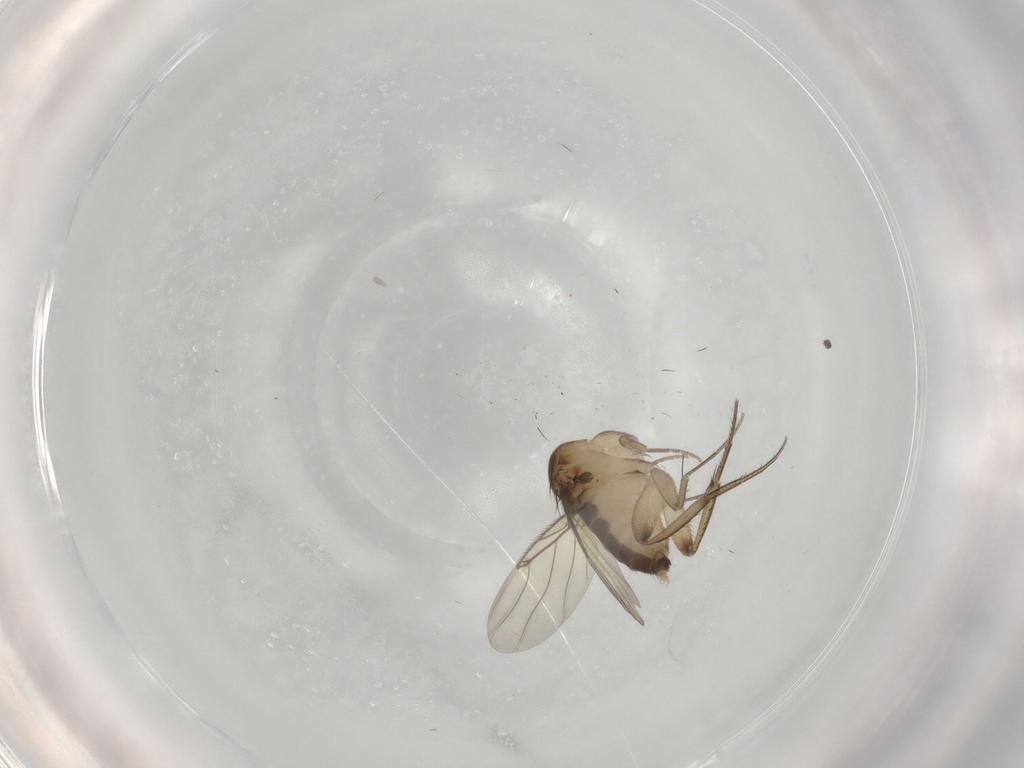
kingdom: Animalia
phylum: Arthropoda
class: Insecta
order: Diptera
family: Phoridae
